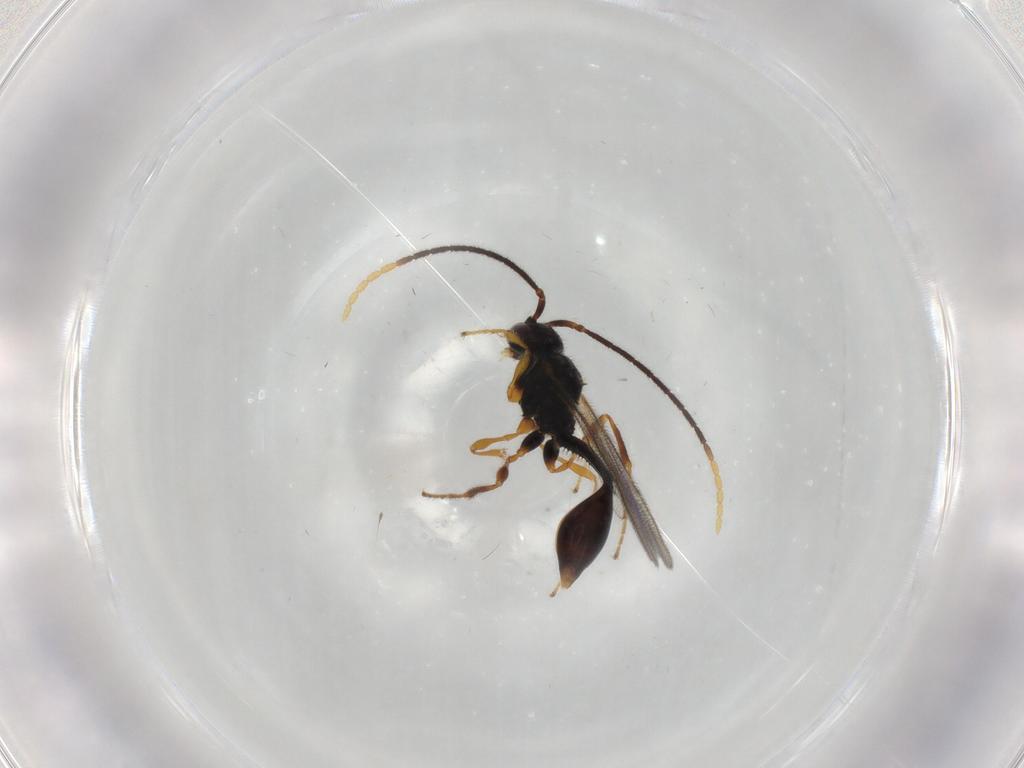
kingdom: Animalia
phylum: Arthropoda
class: Insecta
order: Hymenoptera
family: Diapriidae
